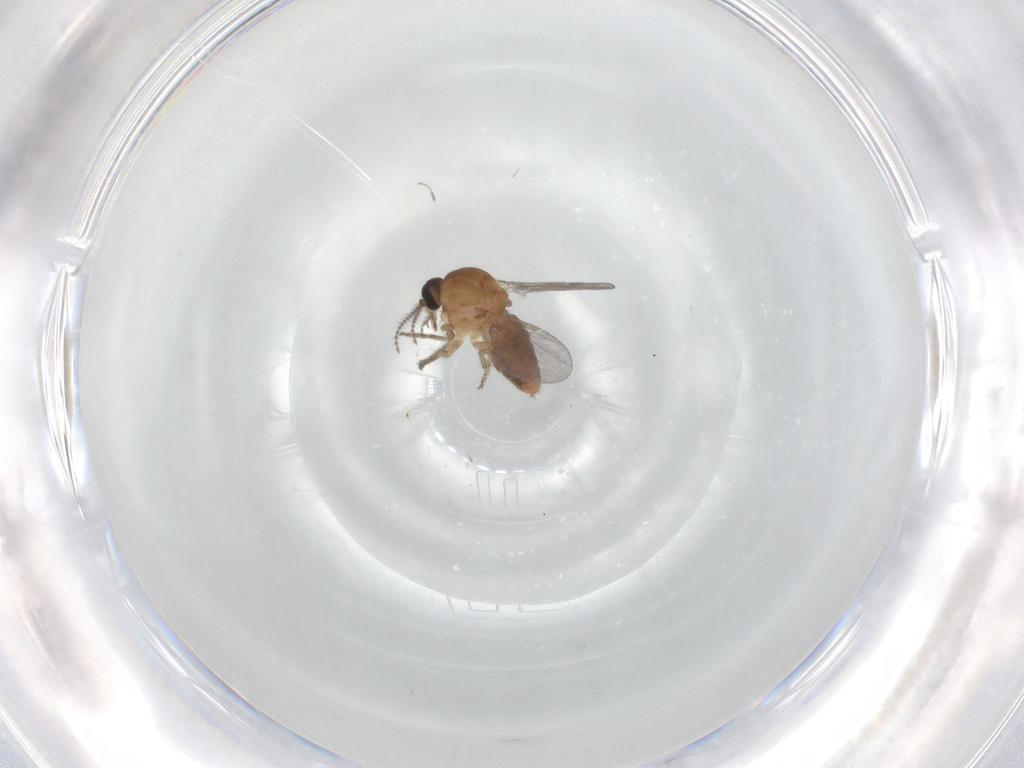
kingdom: Animalia
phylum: Arthropoda
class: Insecta
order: Diptera
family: Ceratopogonidae
